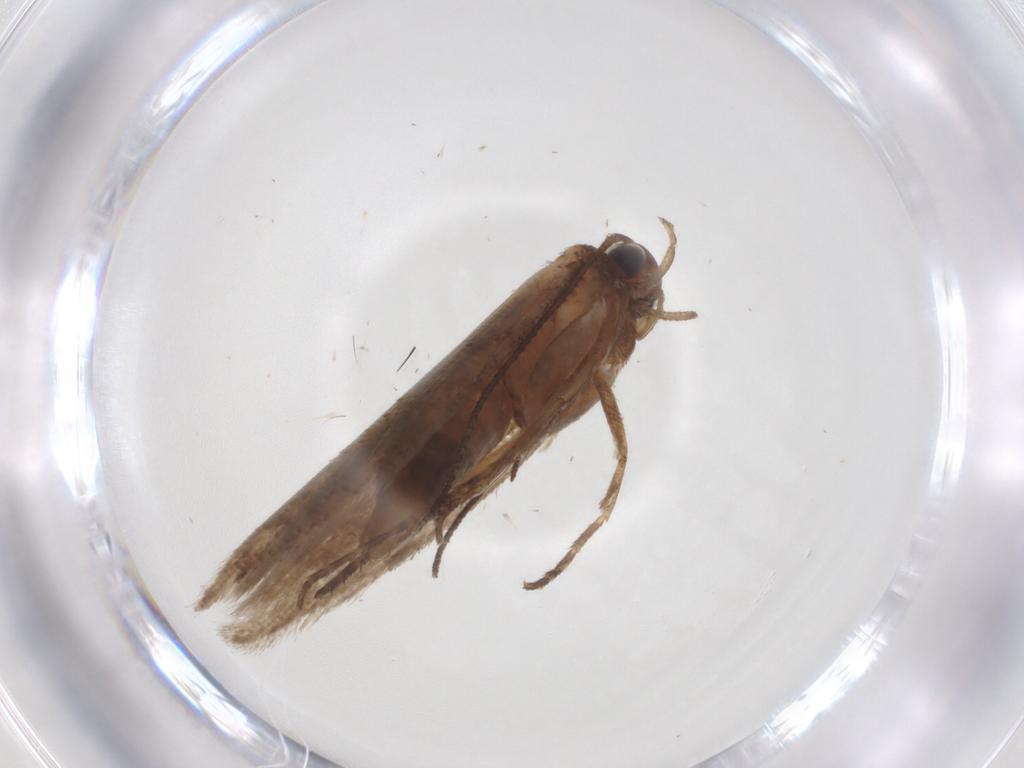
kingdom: Animalia
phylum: Arthropoda
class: Insecta
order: Lepidoptera
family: Gelechiidae
